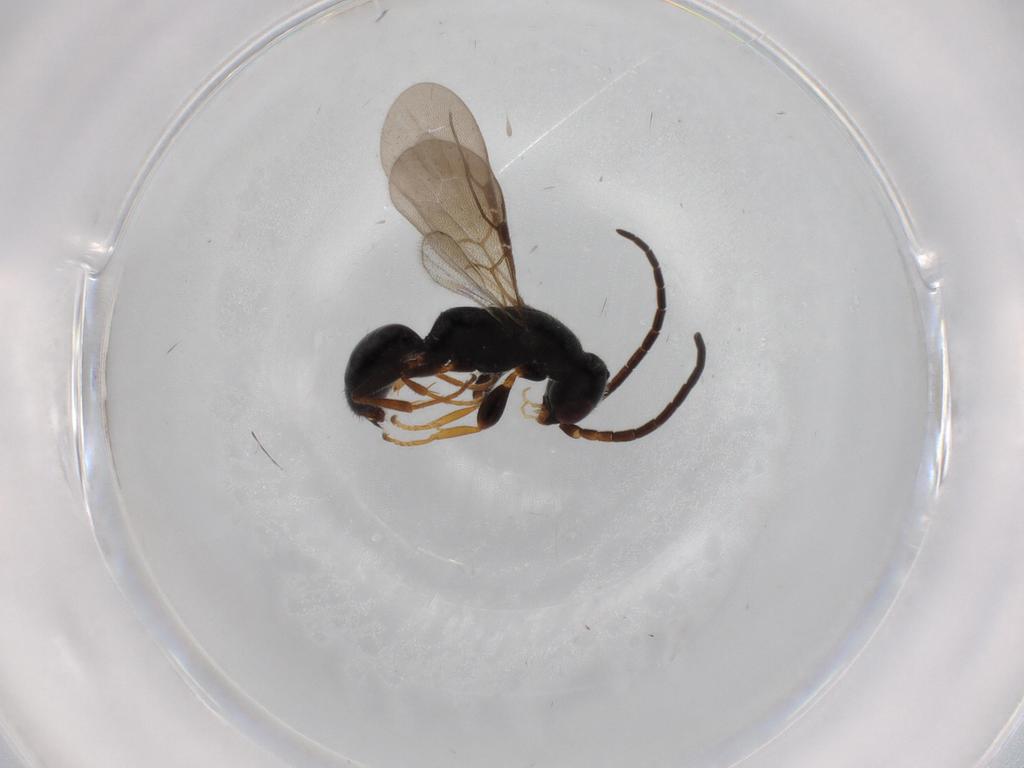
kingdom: Animalia
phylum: Arthropoda
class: Insecta
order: Hymenoptera
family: Bethylidae
